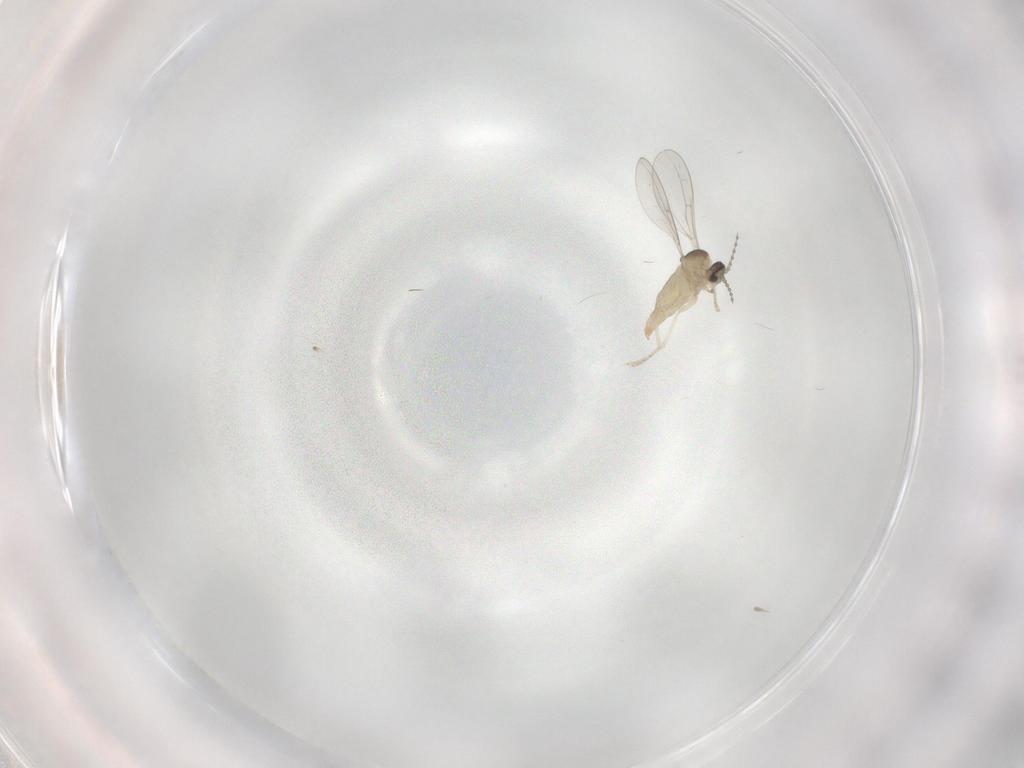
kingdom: Animalia
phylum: Arthropoda
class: Insecta
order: Diptera
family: Cecidomyiidae
